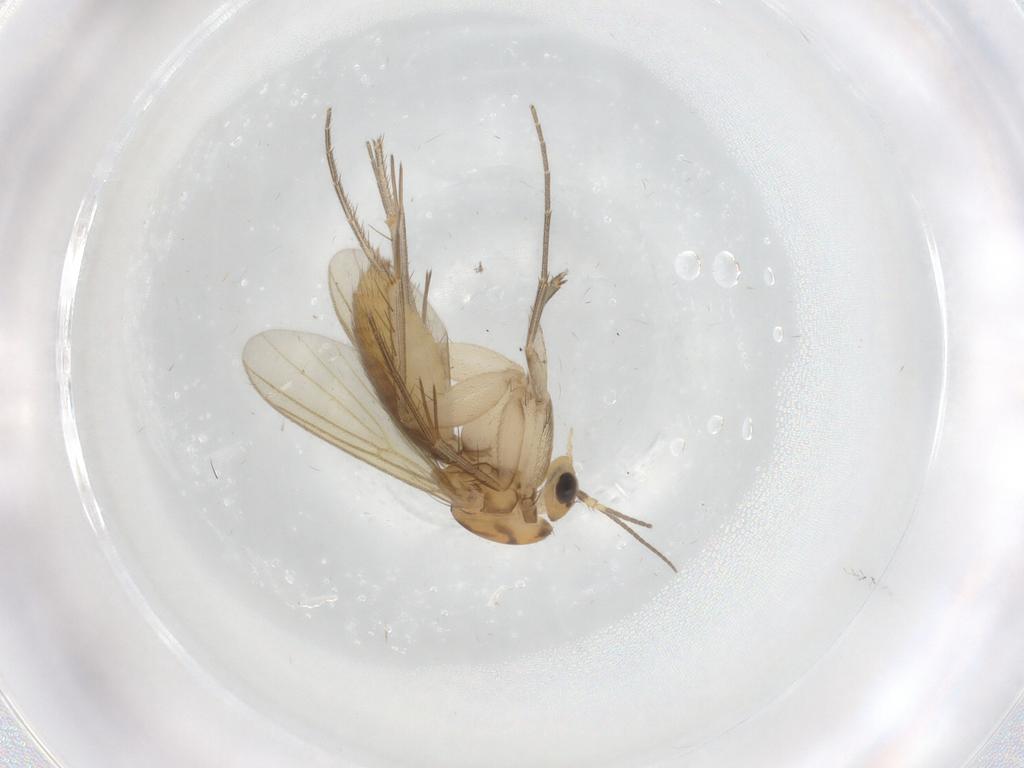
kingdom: Animalia
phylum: Arthropoda
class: Insecta
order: Diptera
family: Mycetophilidae
